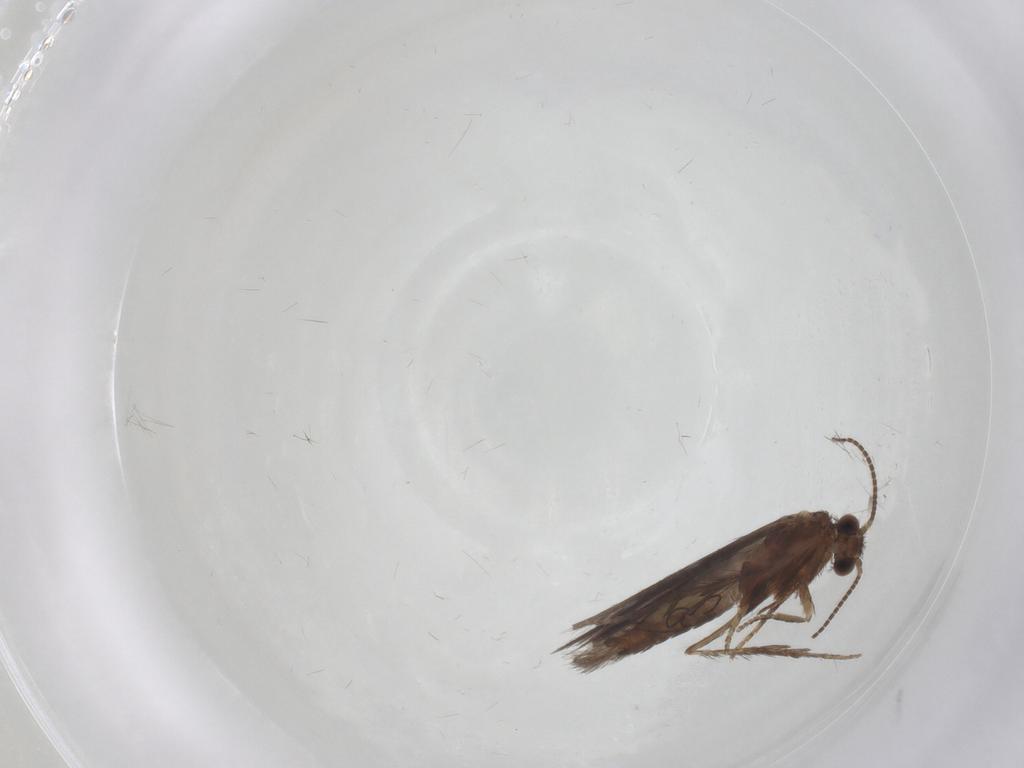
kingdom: Animalia
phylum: Arthropoda
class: Insecta
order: Trichoptera
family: Hydroptilidae
